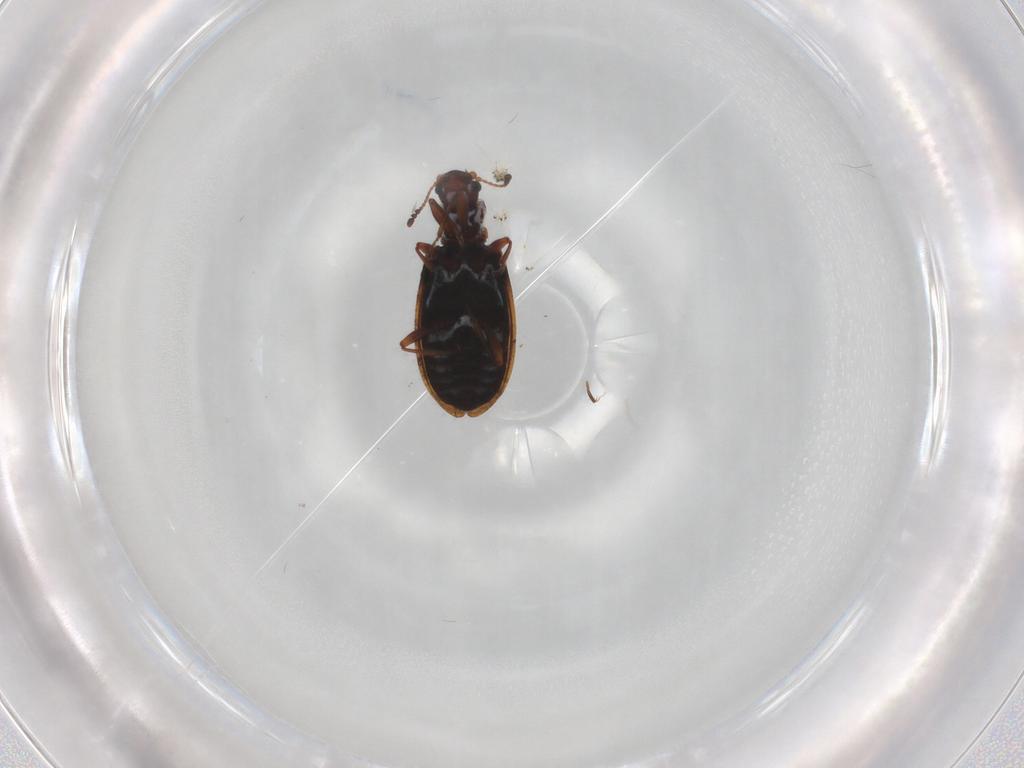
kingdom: Animalia
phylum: Arthropoda
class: Insecta
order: Coleoptera
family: Latridiidae
